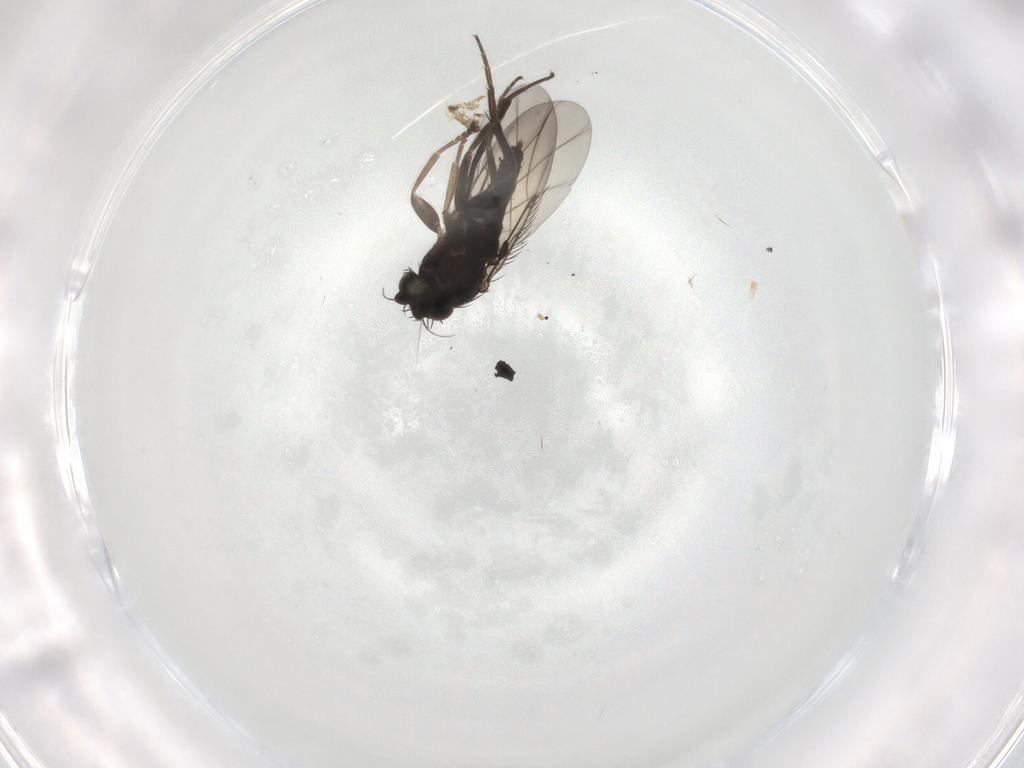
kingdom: Animalia
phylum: Arthropoda
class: Insecta
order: Diptera
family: Phoridae
